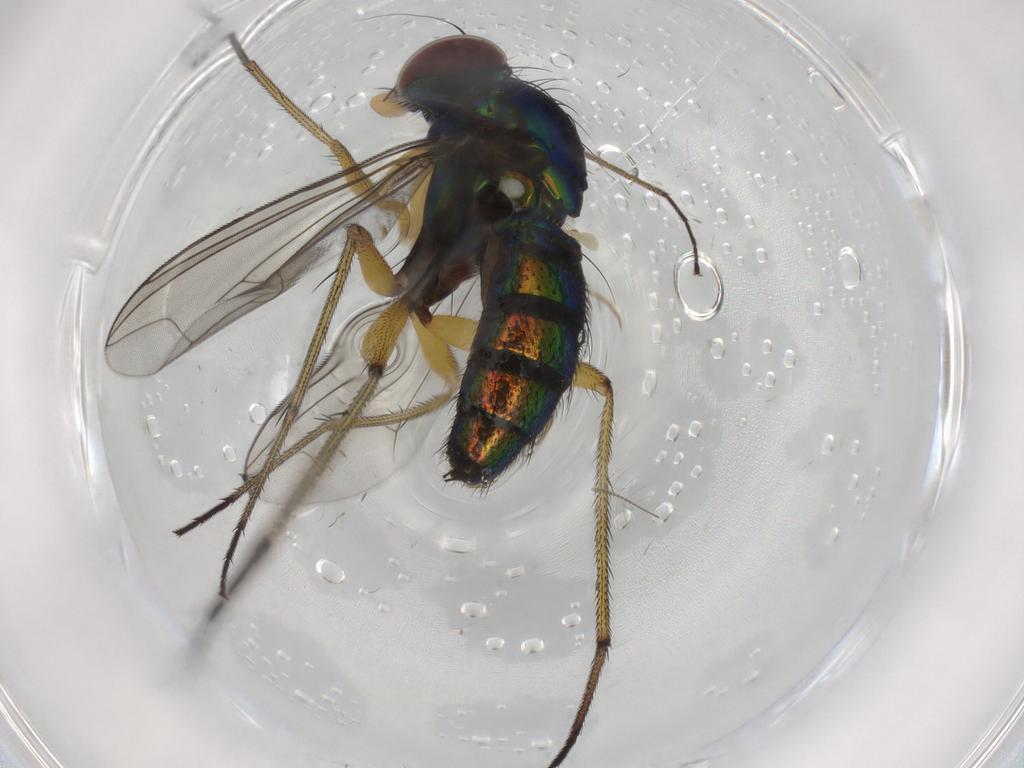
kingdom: Animalia
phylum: Arthropoda
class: Insecta
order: Diptera
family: Dolichopodidae
